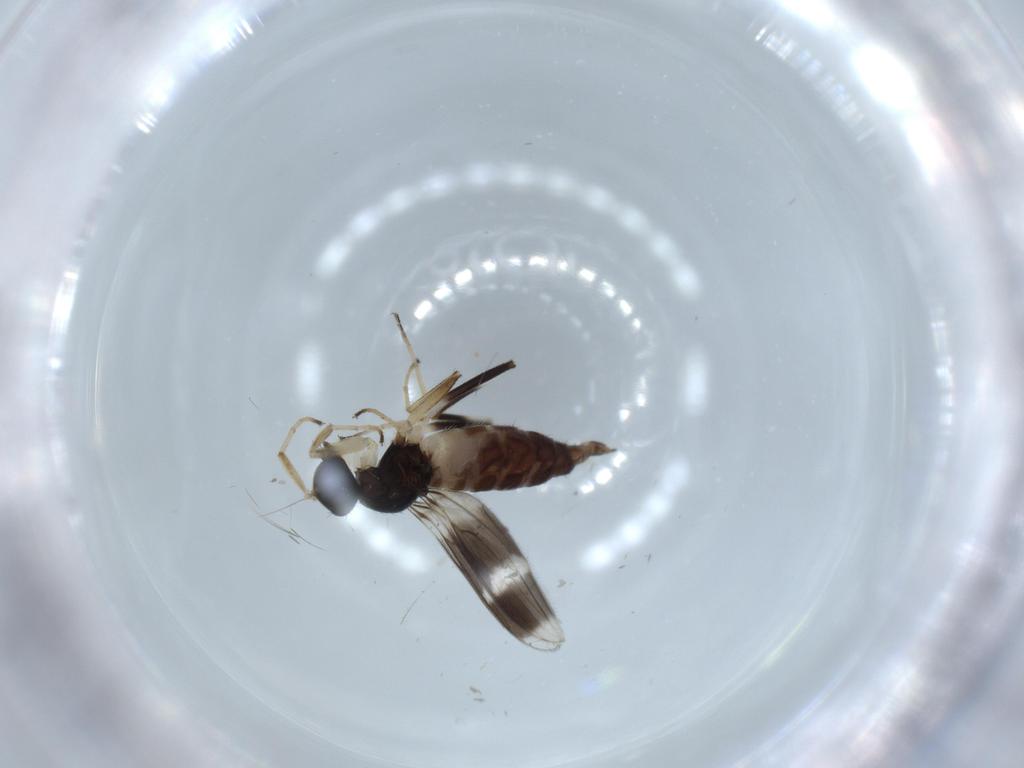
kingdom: Animalia
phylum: Arthropoda
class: Insecta
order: Diptera
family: Hybotidae
